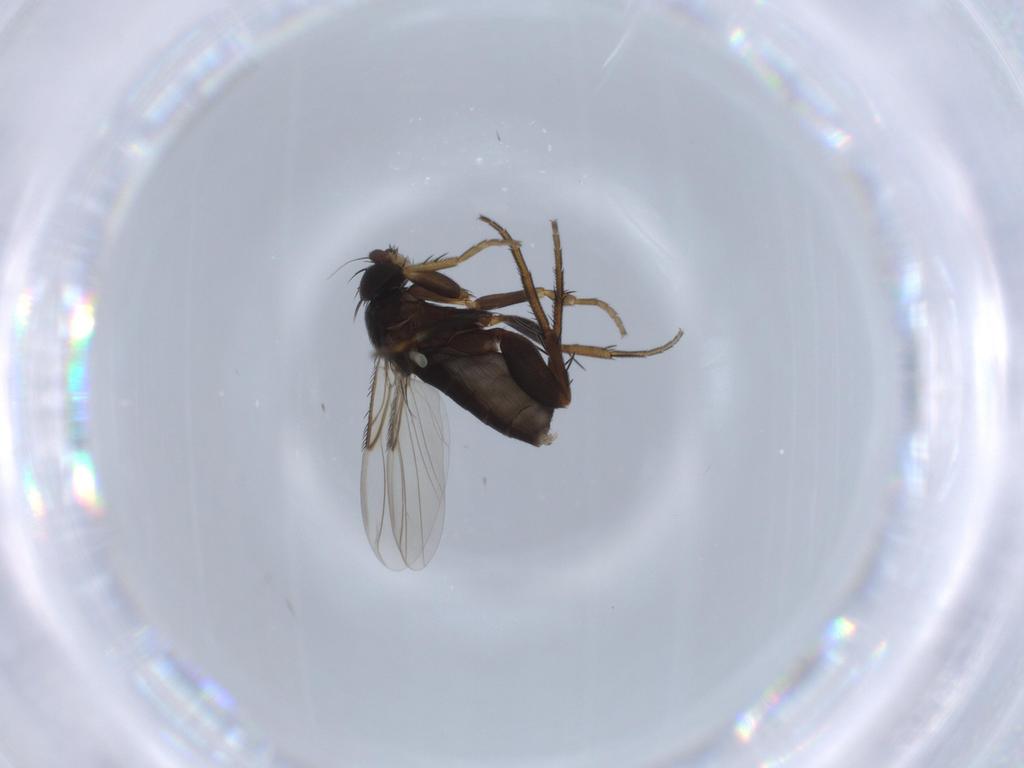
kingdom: Animalia
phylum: Arthropoda
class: Insecta
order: Diptera
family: Phoridae
